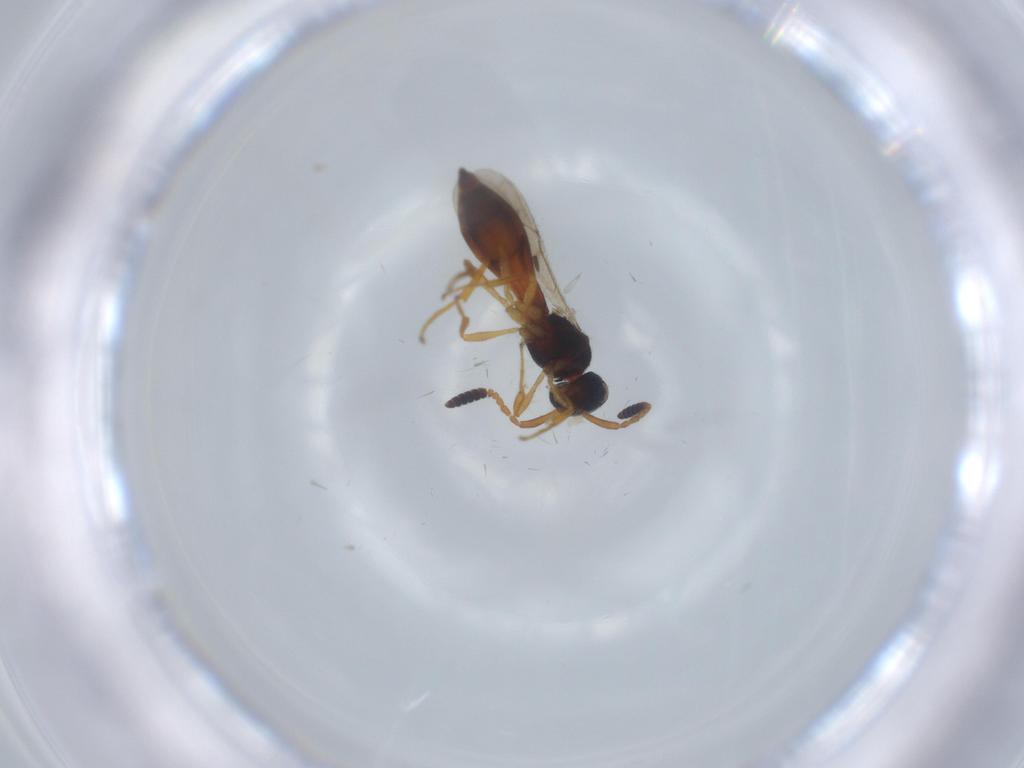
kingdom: Animalia
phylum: Arthropoda
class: Insecta
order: Hymenoptera
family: Scelionidae
